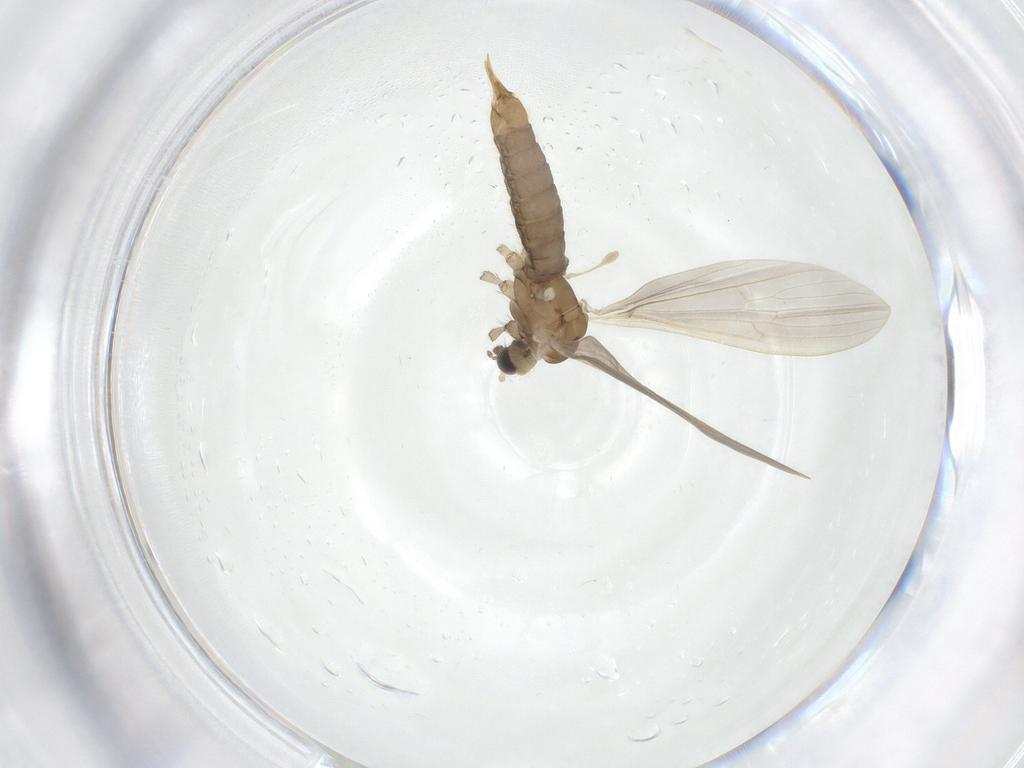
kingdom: Animalia
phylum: Arthropoda
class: Insecta
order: Diptera
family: Limoniidae
